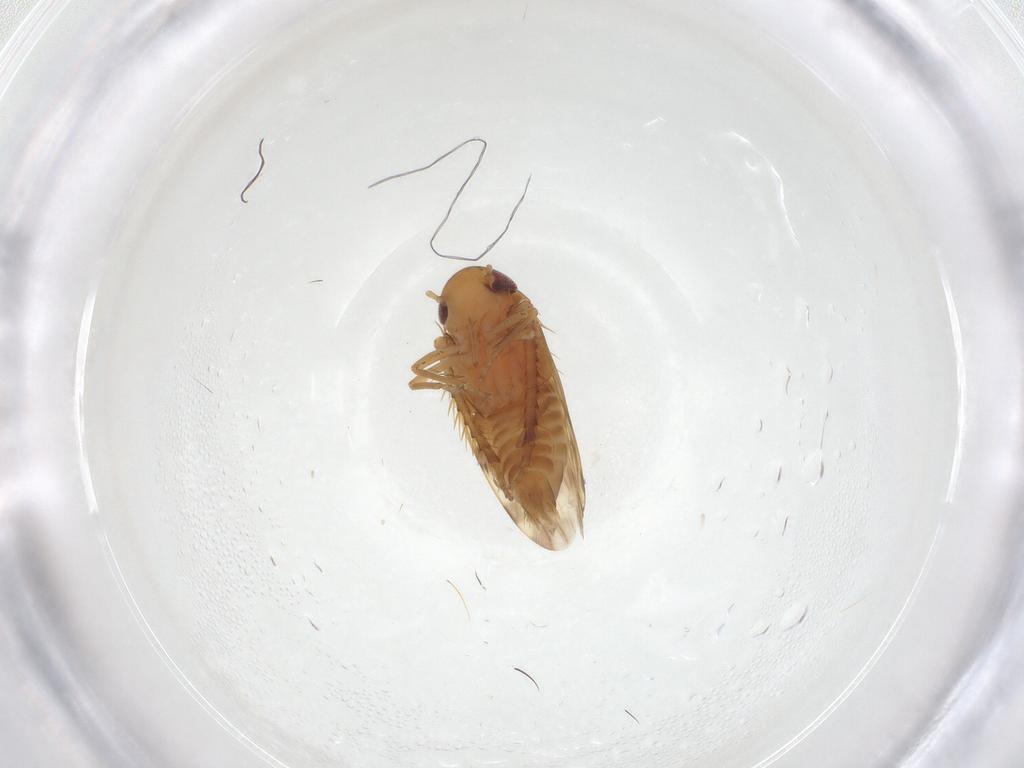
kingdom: Animalia
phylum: Arthropoda
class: Insecta
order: Hemiptera
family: Cicadellidae
